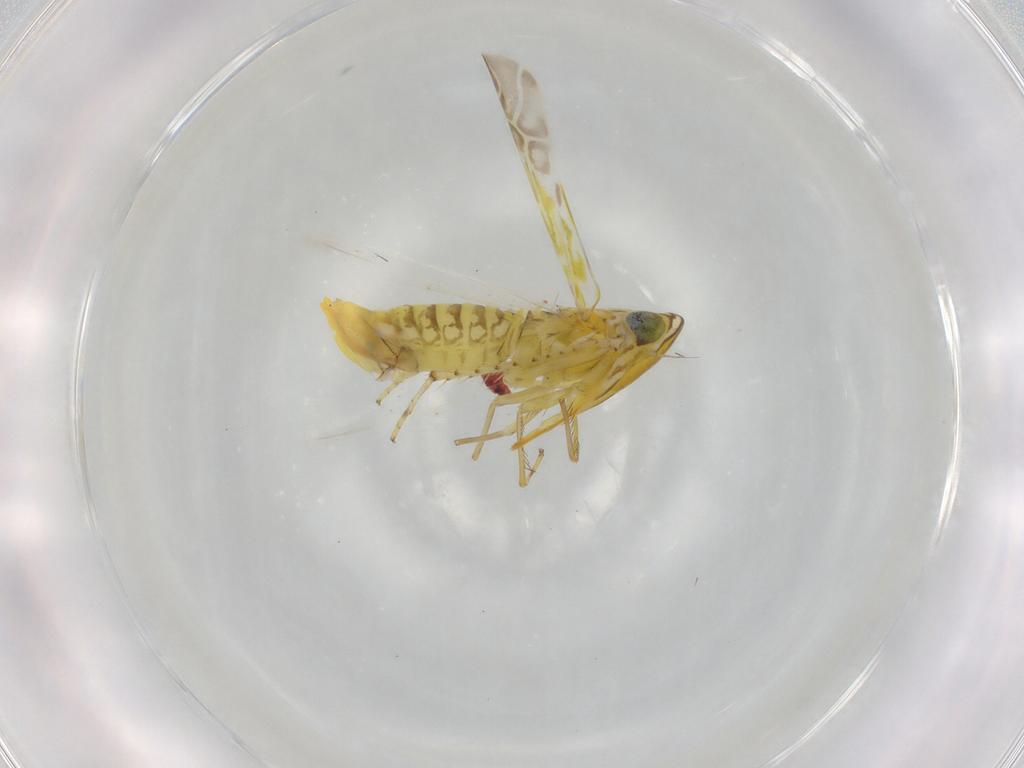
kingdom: Animalia
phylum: Arthropoda
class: Insecta
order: Hemiptera
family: Cicadellidae
